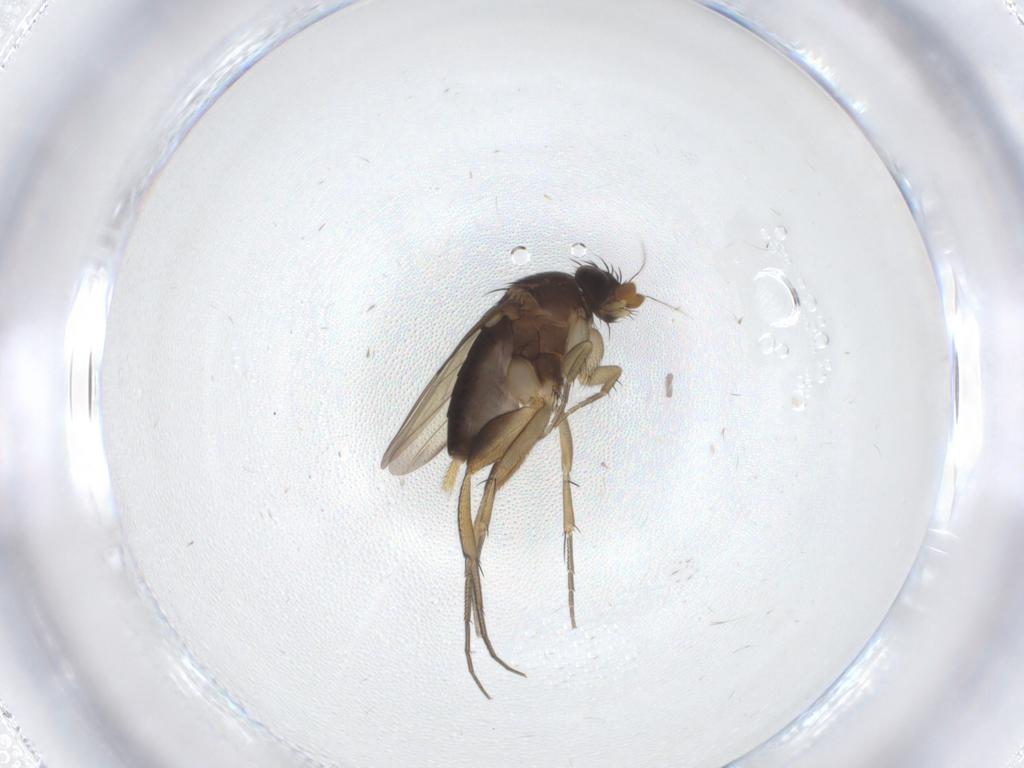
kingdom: Animalia
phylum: Arthropoda
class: Insecta
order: Diptera
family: Phoridae
